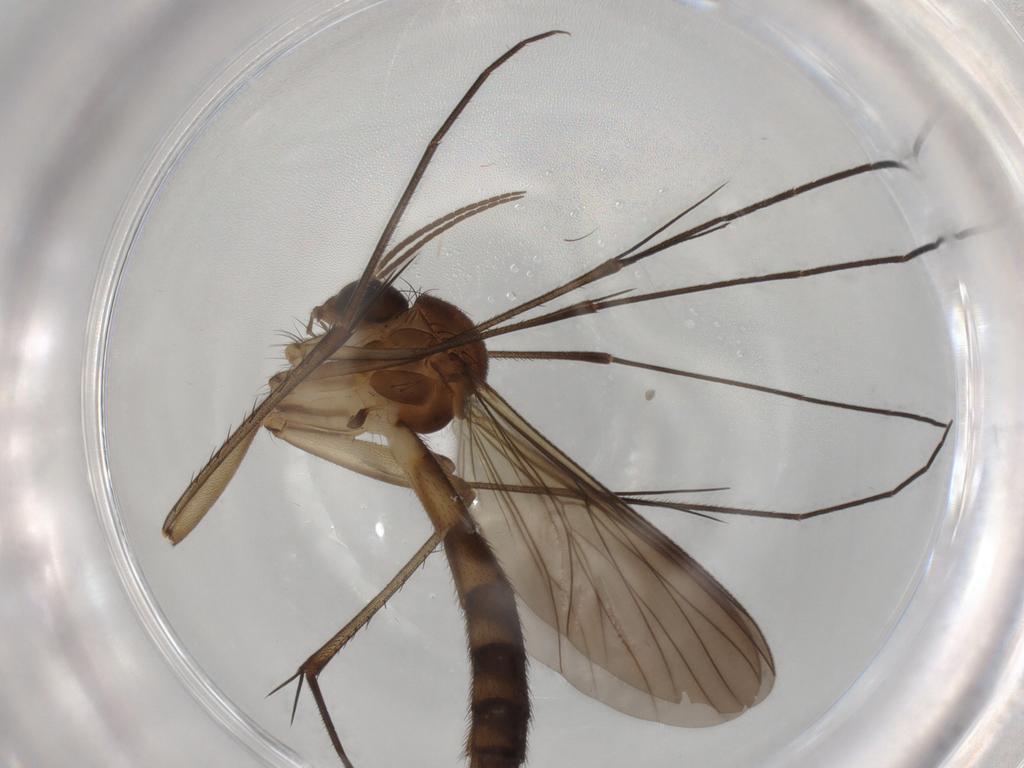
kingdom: Animalia
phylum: Arthropoda
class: Insecta
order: Diptera
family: Mycetophilidae
